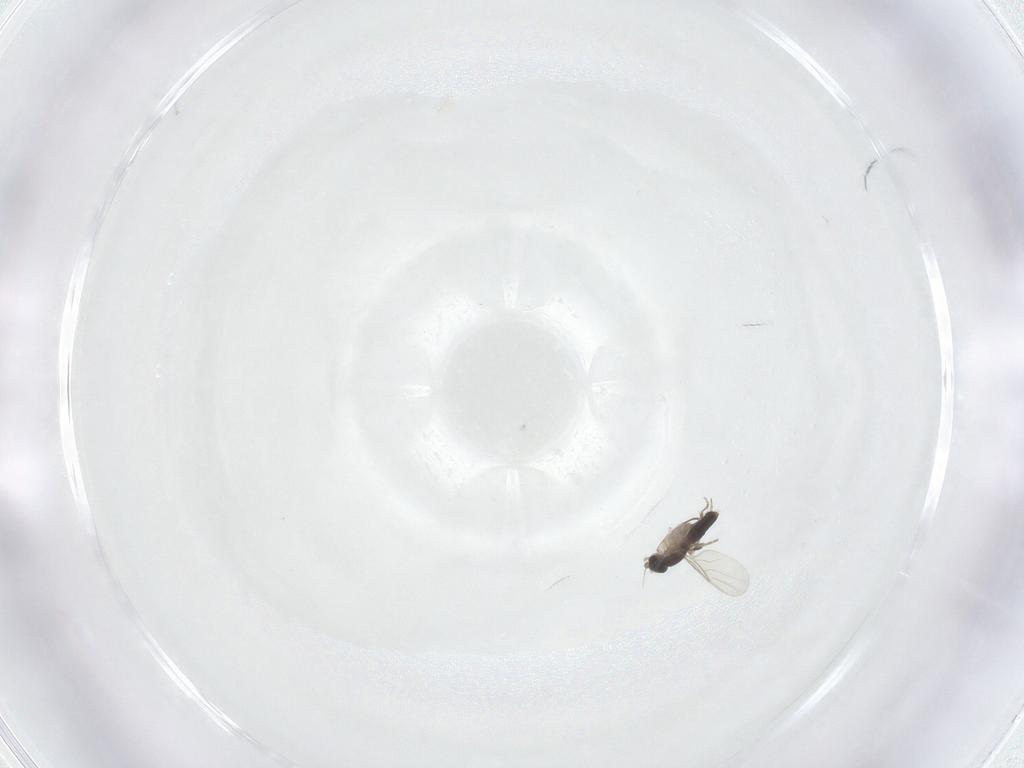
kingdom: Animalia
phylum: Arthropoda
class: Insecta
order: Diptera
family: Phoridae
